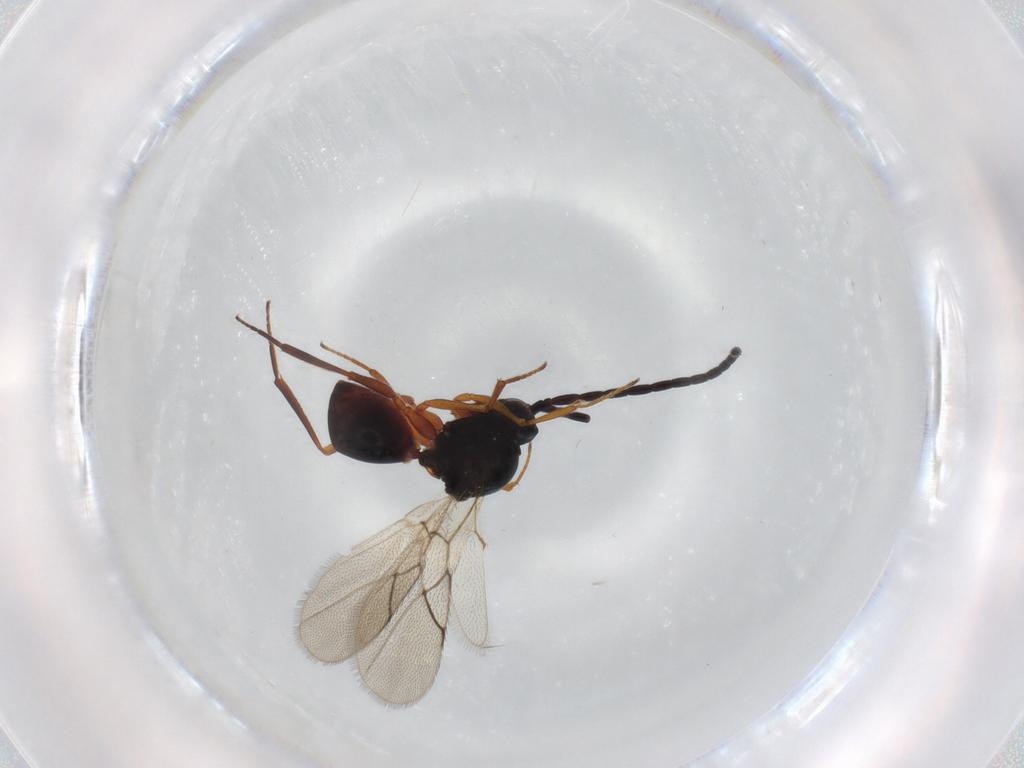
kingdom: Animalia
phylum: Arthropoda
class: Insecta
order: Hymenoptera
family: Figitidae
